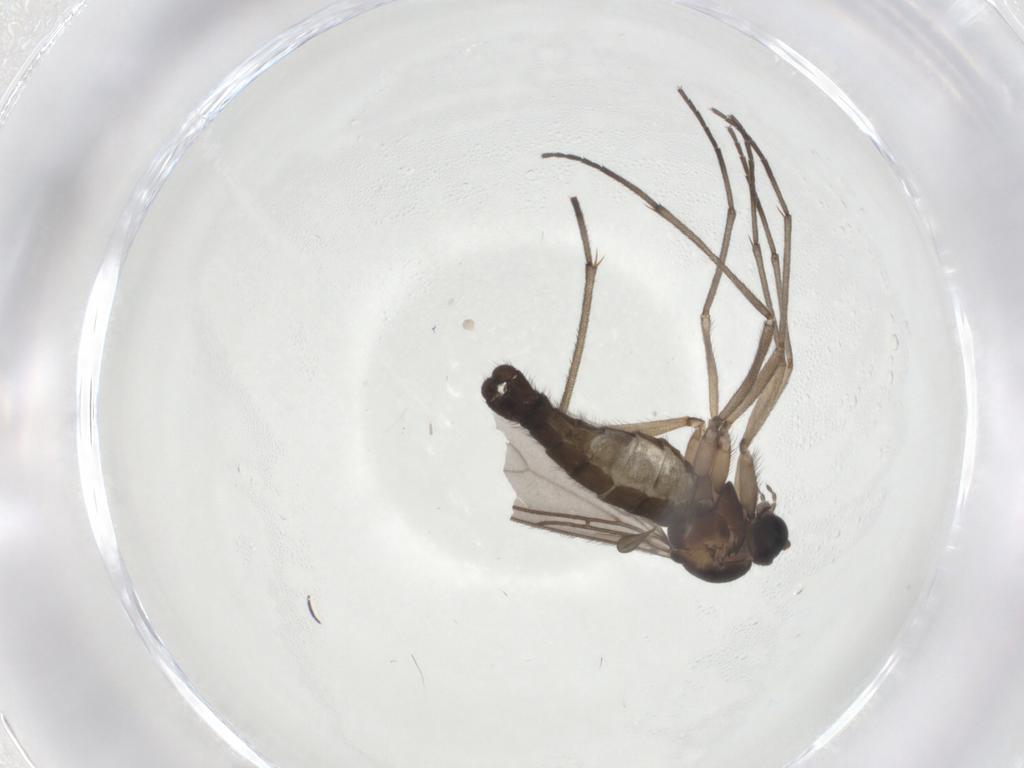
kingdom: Animalia
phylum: Arthropoda
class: Insecta
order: Diptera
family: Sciaridae
